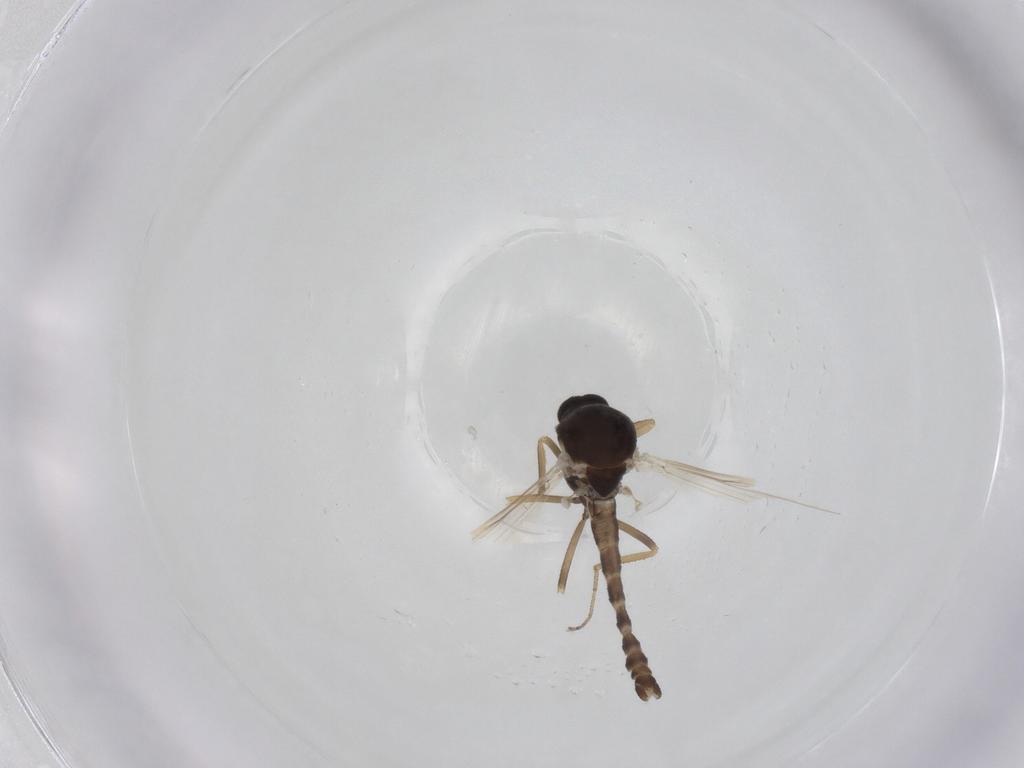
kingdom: Animalia
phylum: Arthropoda
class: Insecta
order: Diptera
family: Ceratopogonidae
